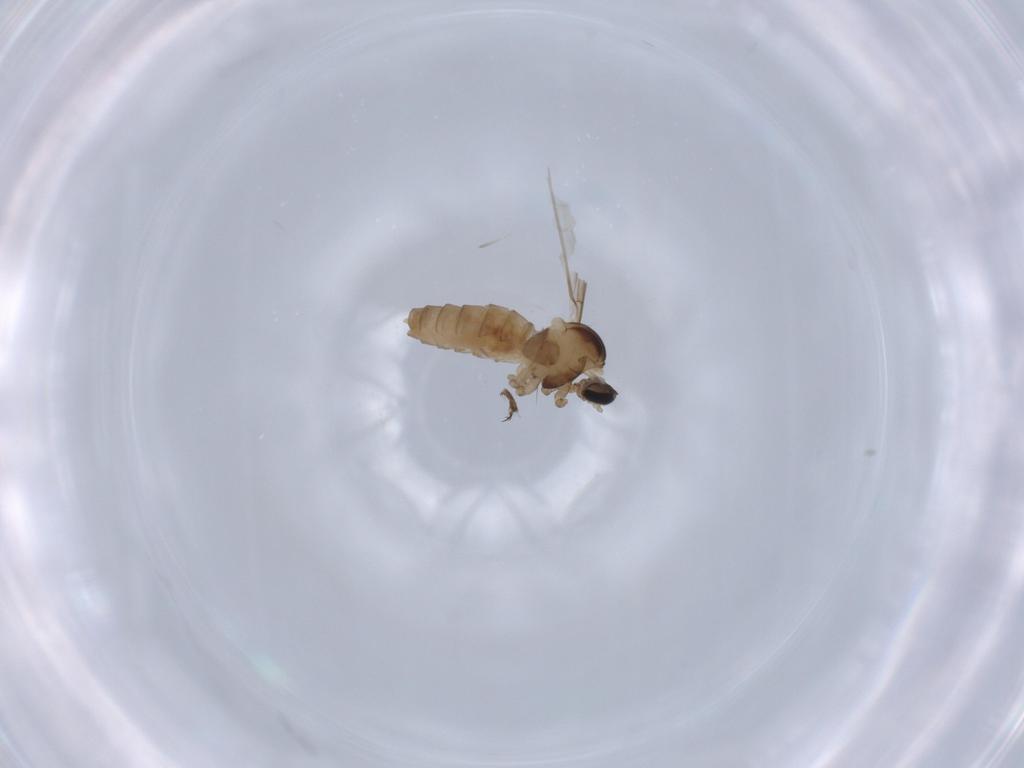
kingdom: Animalia
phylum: Arthropoda
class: Insecta
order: Diptera
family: Cecidomyiidae
